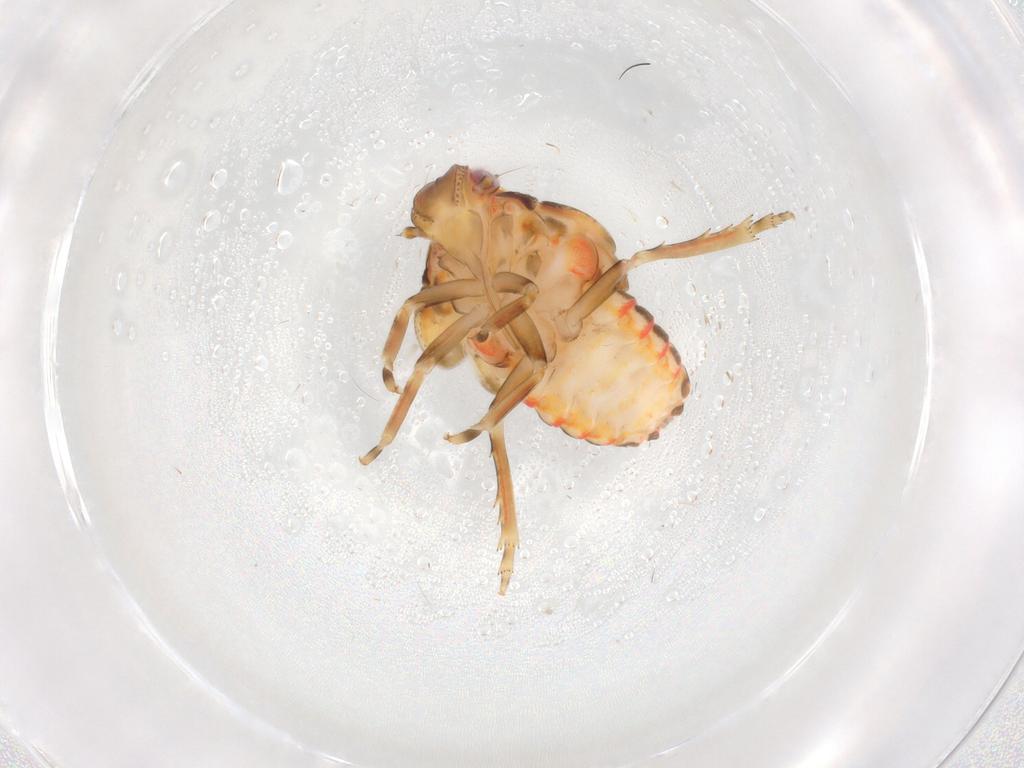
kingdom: Animalia
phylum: Arthropoda
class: Insecta
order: Hemiptera
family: Flatidae
